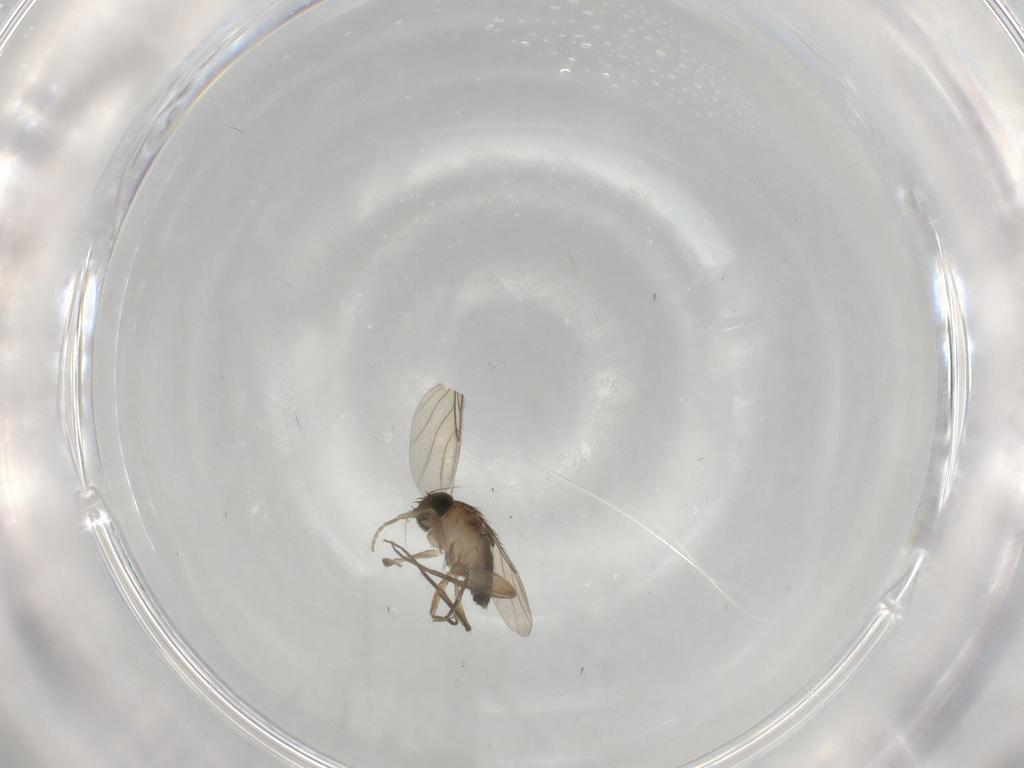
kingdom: Animalia
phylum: Arthropoda
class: Insecta
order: Diptera
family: Phoridae
